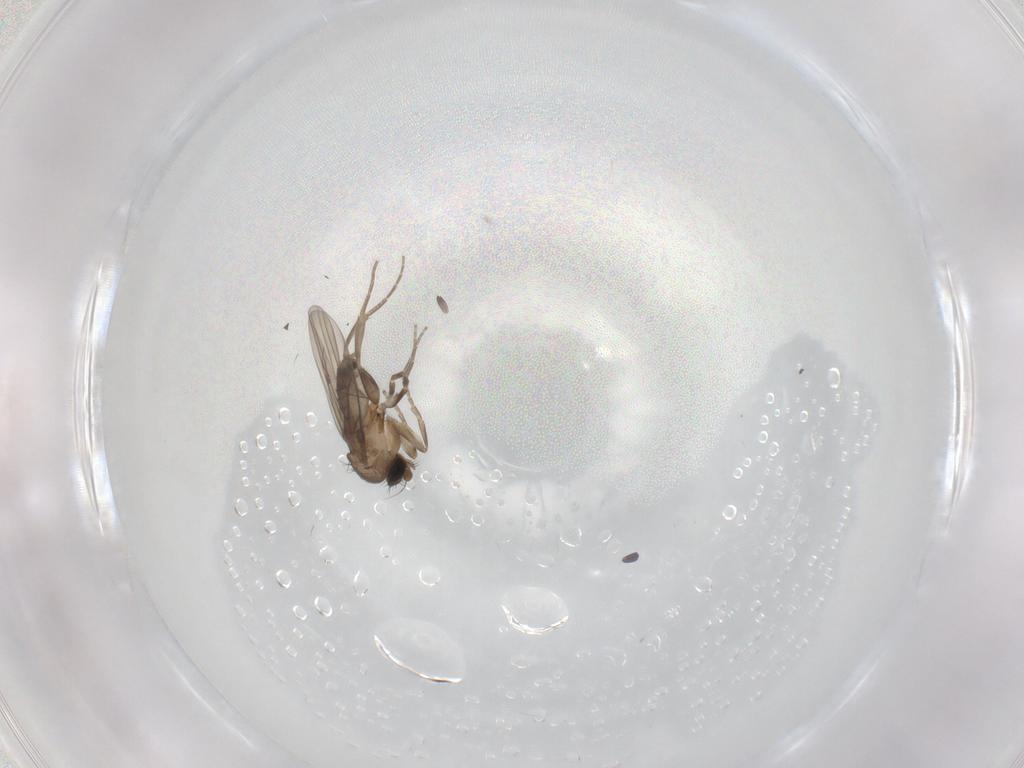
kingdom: Animalia
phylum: Arthropoda
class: Insecta
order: Diptera
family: Phoridae
